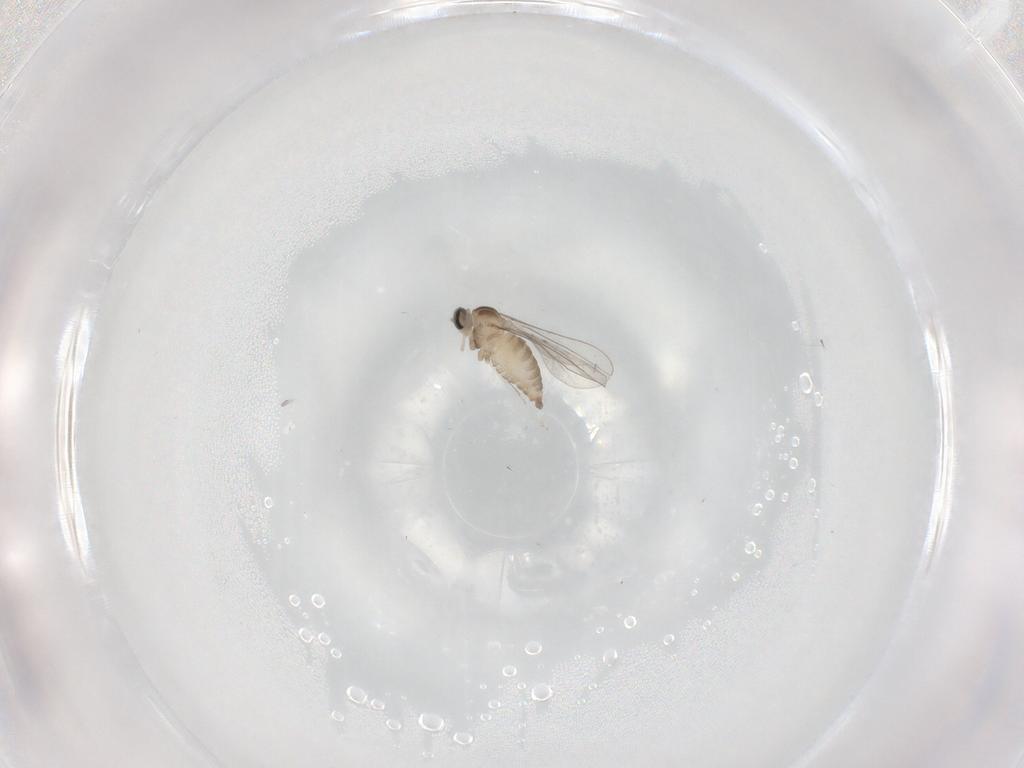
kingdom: Animalia
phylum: Arthropoda
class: Insecta
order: Diptera
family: Cecidomyiidae
